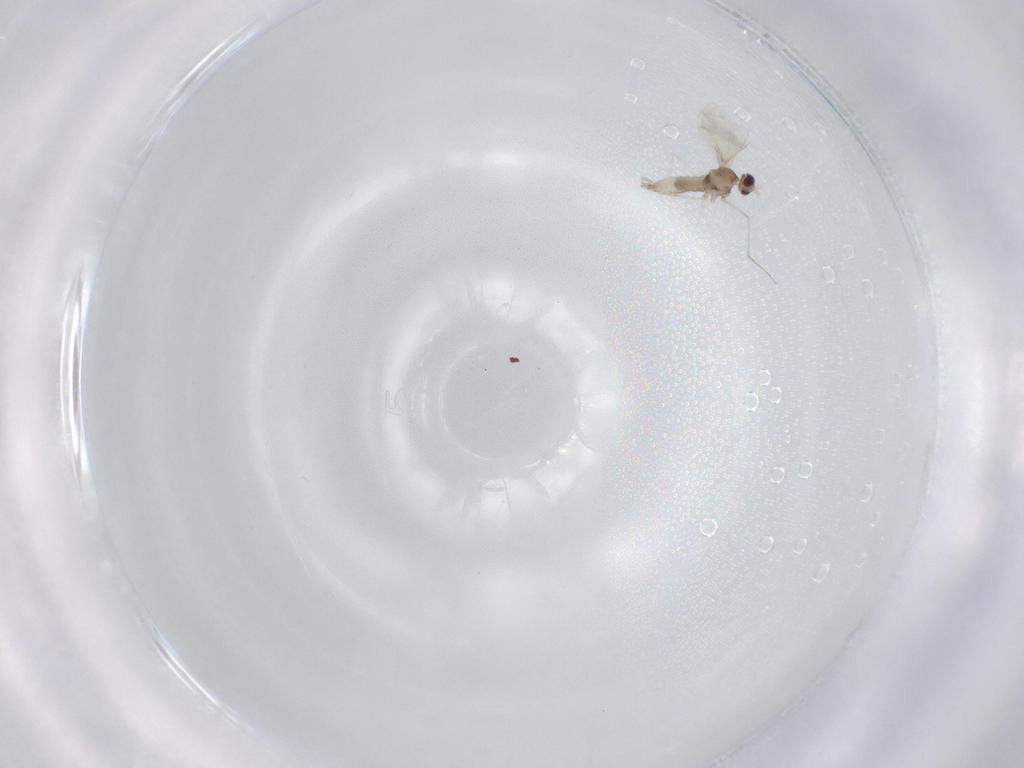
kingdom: Animalia
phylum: Arthropoda
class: Insecta
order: Diptera
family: Cecidomyiidae
